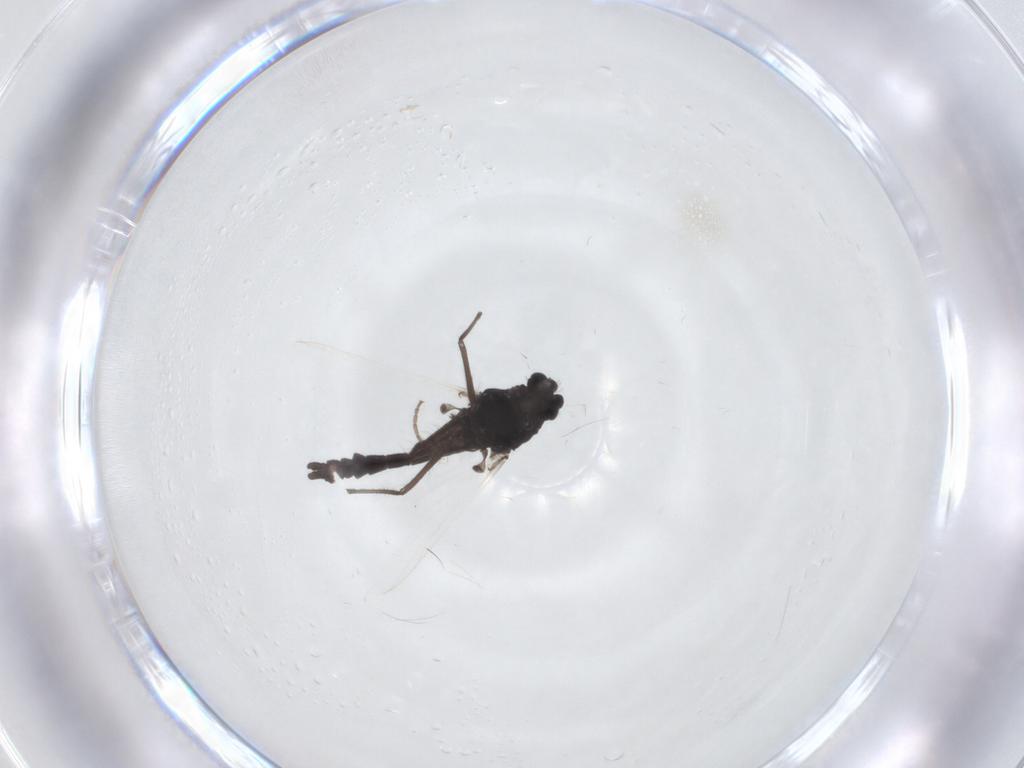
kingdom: Animalia
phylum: Arthropoda
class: Insecta
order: Diptera
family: Chironomidae
